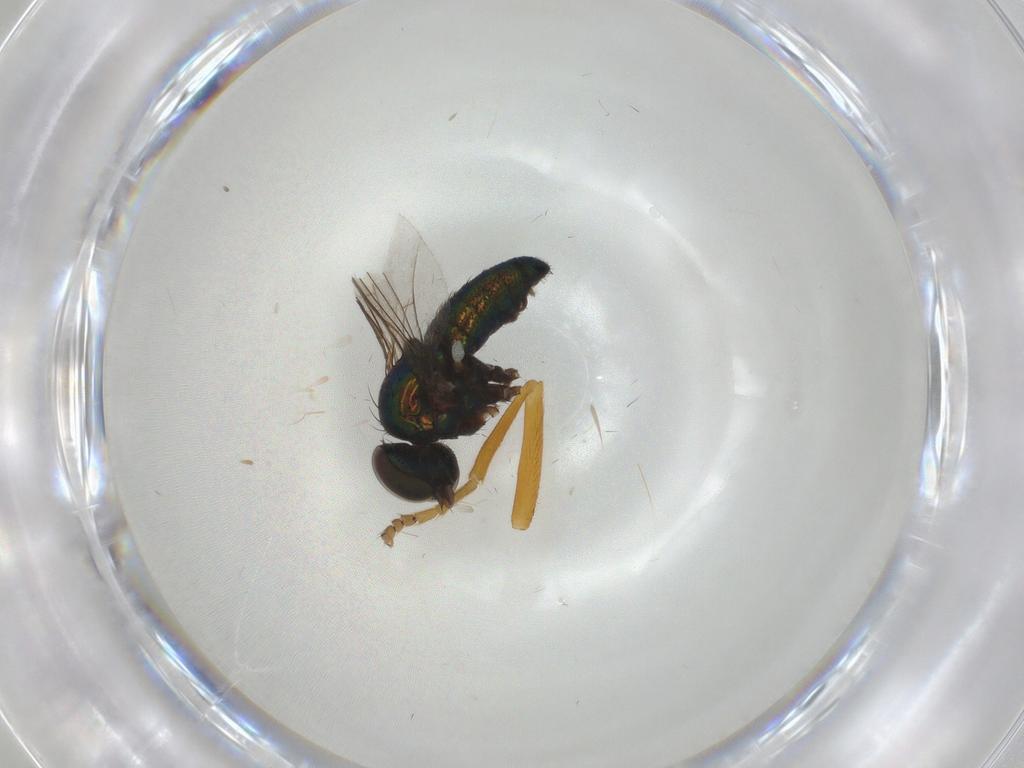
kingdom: Animalia
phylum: Arthropoda
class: Insecta
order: Diptera
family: Syrphidae
